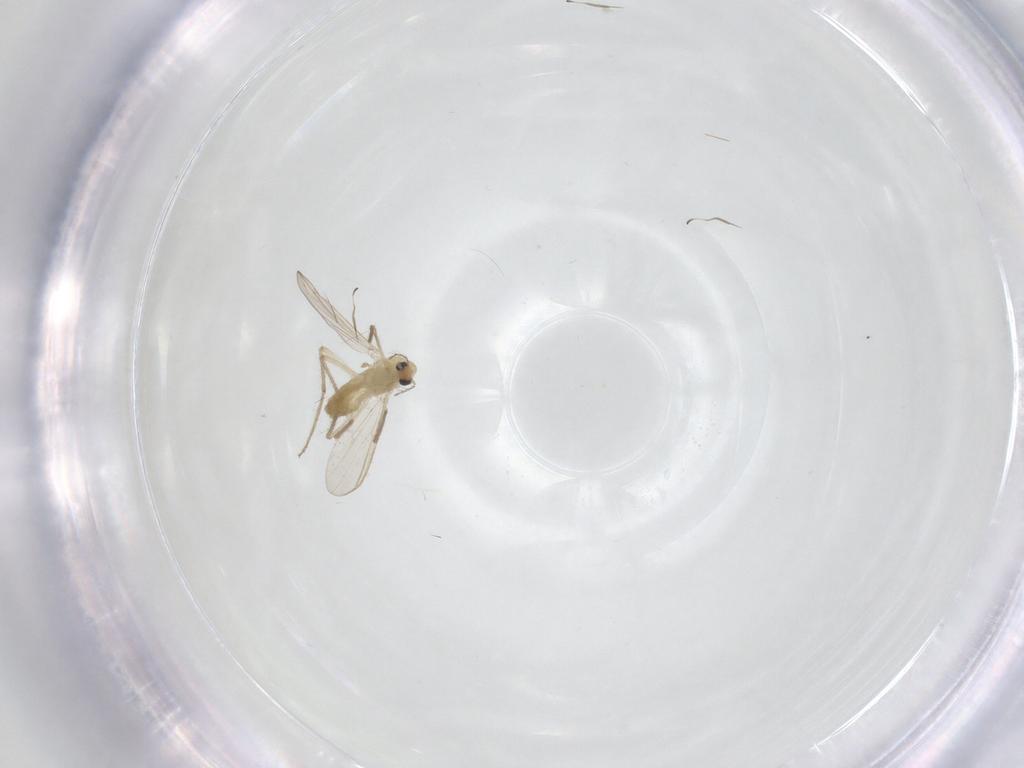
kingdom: Animalia
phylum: Arthropoda
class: Insecta
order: Diptera
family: Chironomidae
